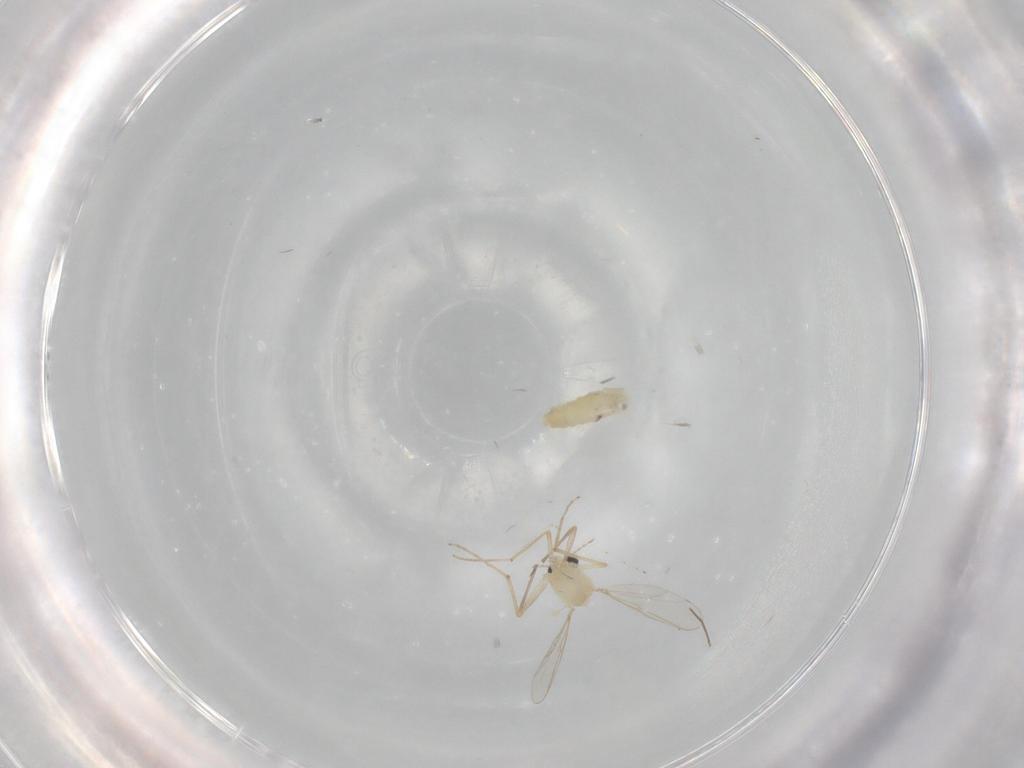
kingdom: Animalia
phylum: Arthropoda
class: Insecta
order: Diptera
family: Chironomidae
